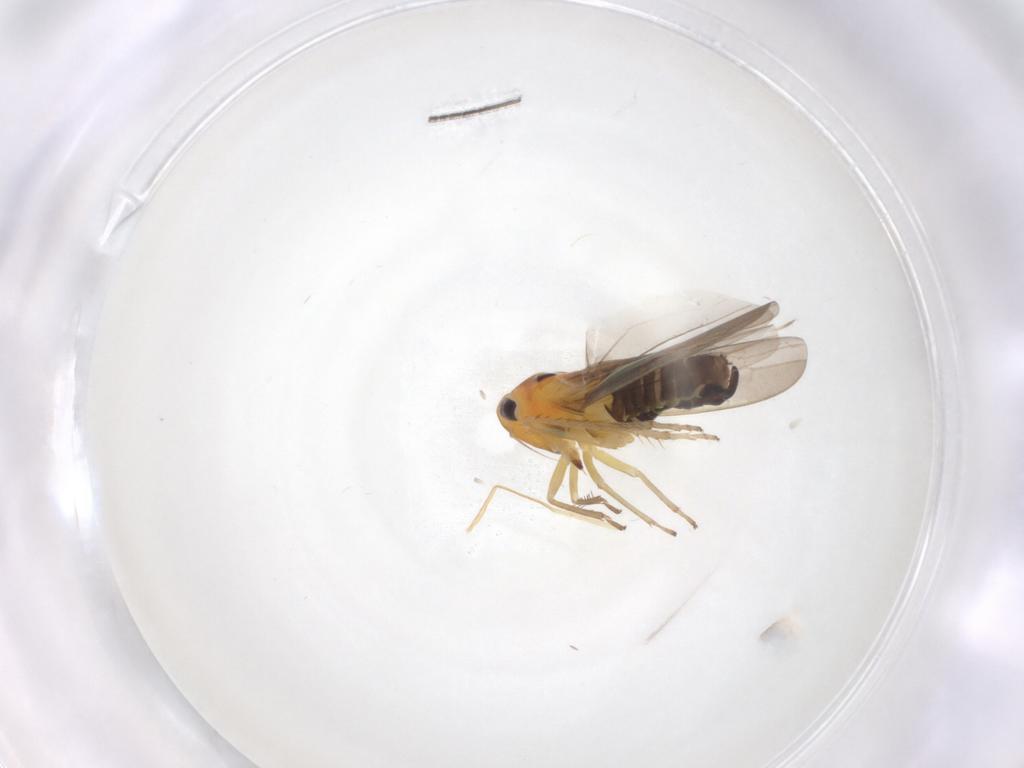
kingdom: Animalia
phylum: Arthropoda
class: Insecta
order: Hemiptera
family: Cicadellidae
